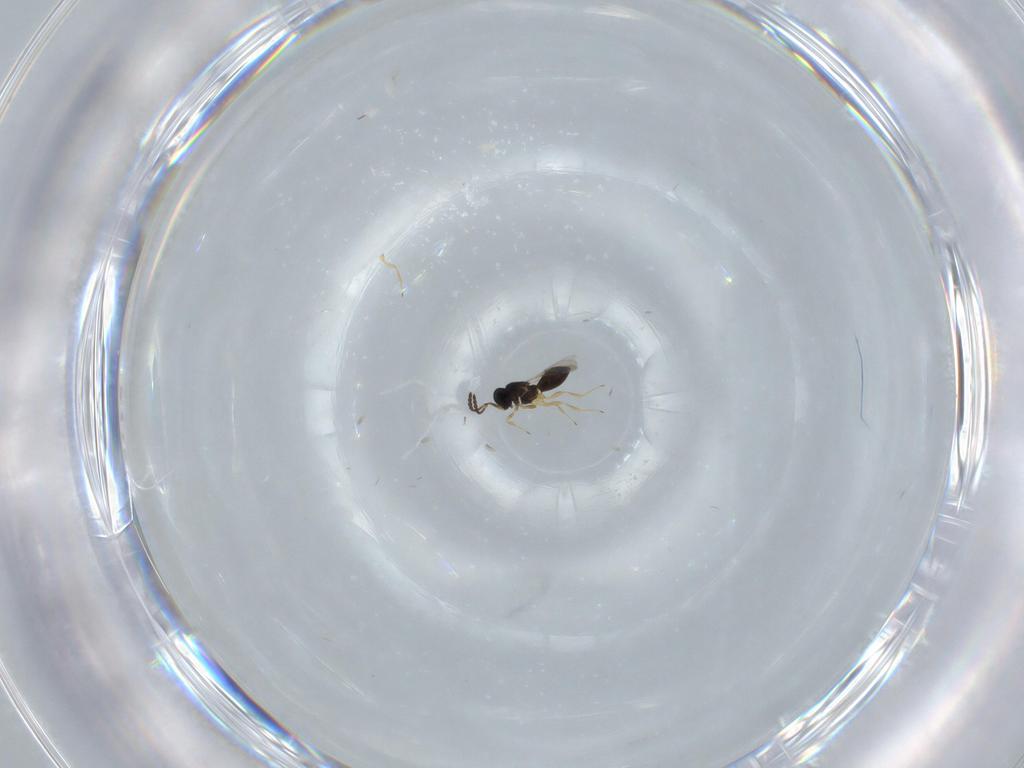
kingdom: Animalia
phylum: Arthropoda
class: Insecta
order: Hymenoptera
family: Scelionidae
